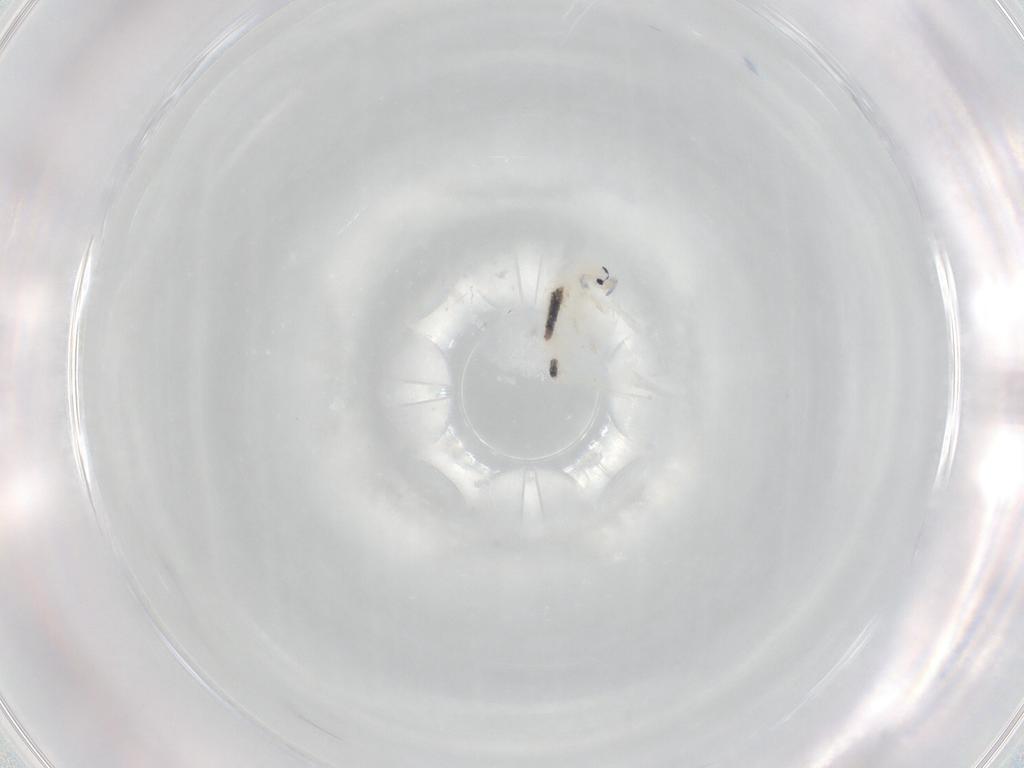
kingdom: Animalia
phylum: Arthropoda
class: Collembola
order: Entomobryomorpha
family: Entomobryidae
